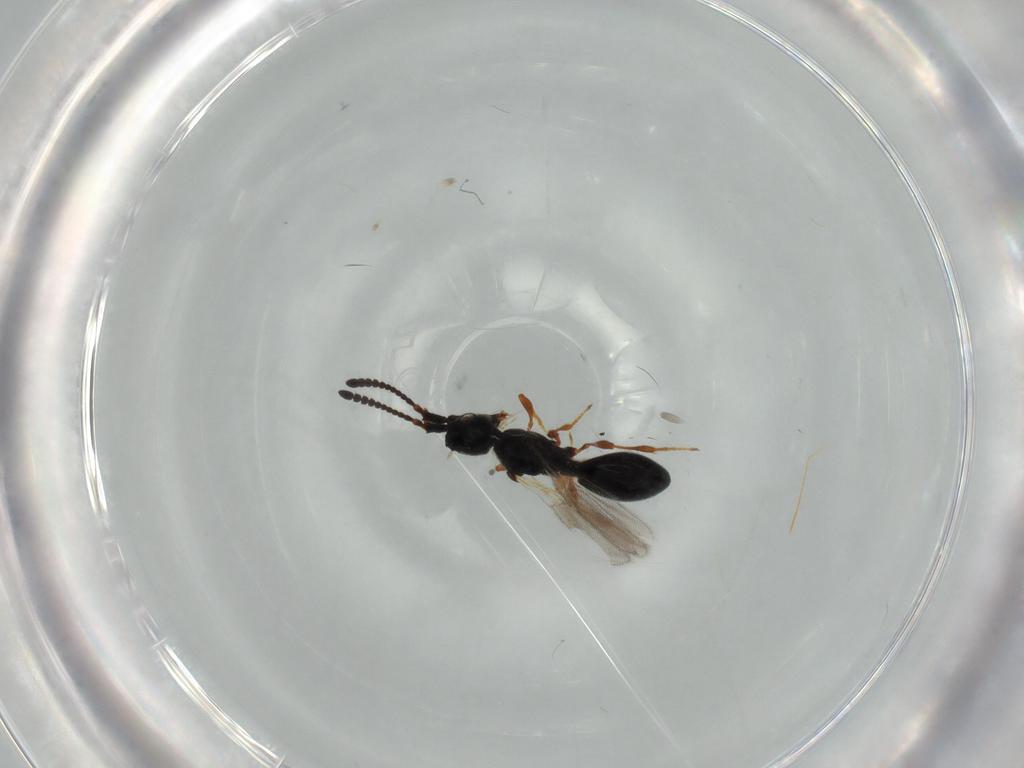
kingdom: Animalia
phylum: Arthropoda
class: Insecta
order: Hymenoptera
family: Diapriidae
